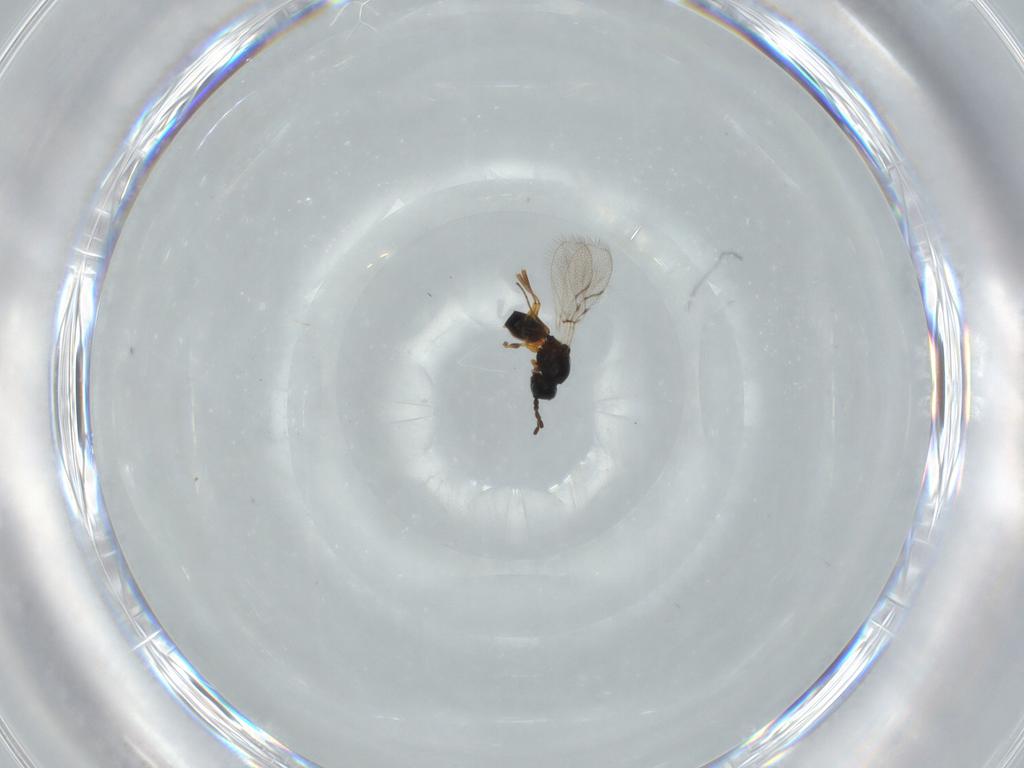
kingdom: Animalia
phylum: Arthropoda
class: Insecta
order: Hymenoptera
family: Figitidae
